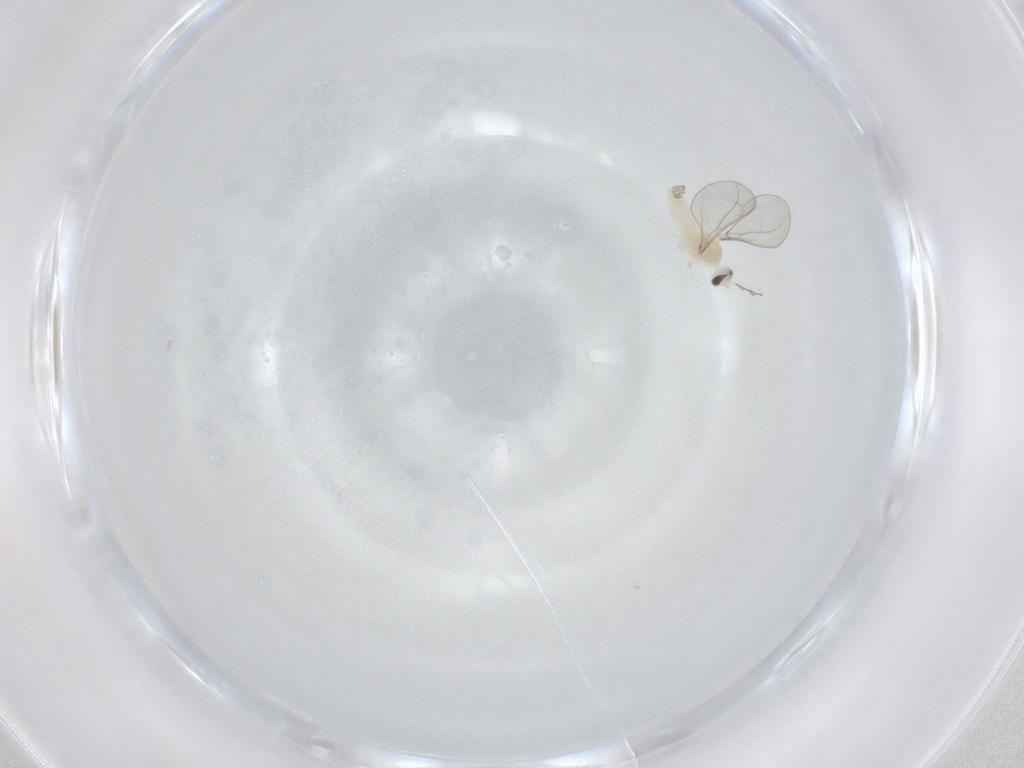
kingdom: Animalia
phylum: Arthropoda
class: Insecta
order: Diptera
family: Cecidomyiidae
